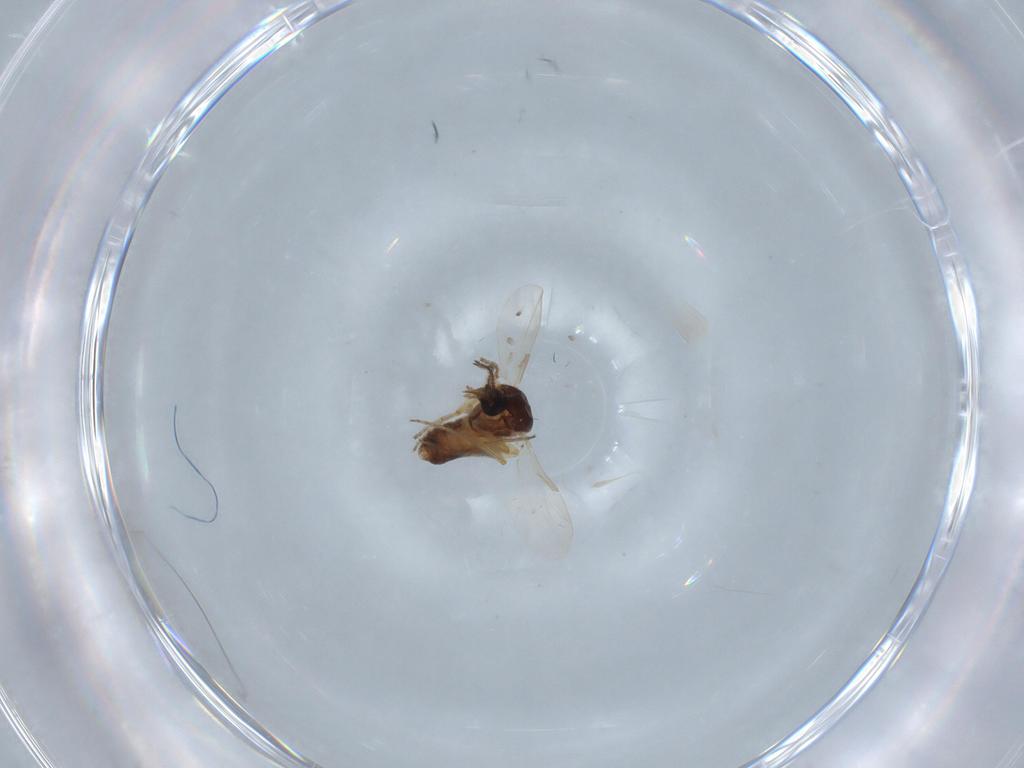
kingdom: Animalia
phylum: Arthropoda
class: Insecta
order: Diptera
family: Ceratopogonidae
